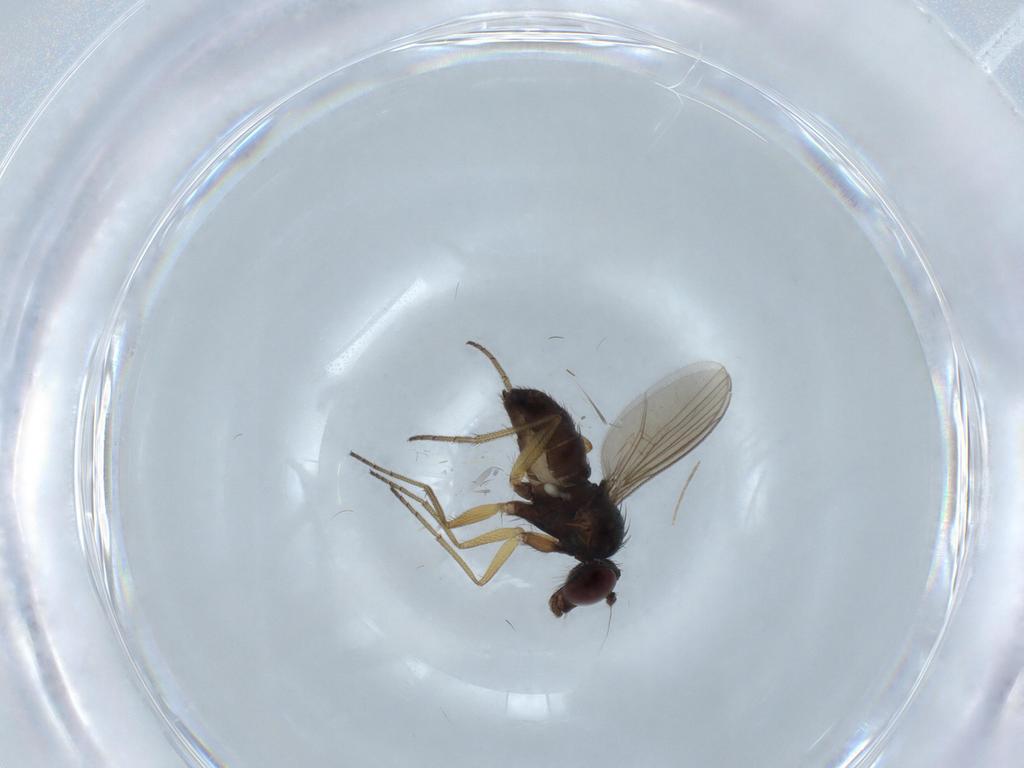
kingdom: Animalia
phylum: Arthropoda
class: Insecta
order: Diptera
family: Dolichopodidae
